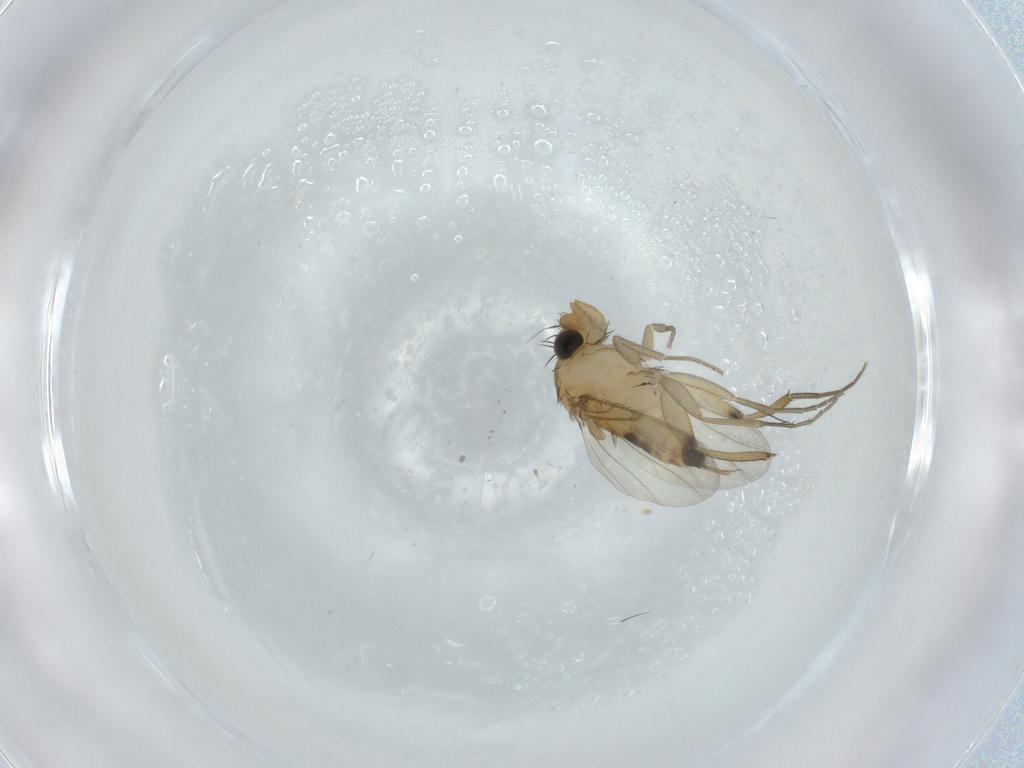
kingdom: Animalia
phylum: Arthropoda
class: Insecta
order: Diptera
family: Phoridae
